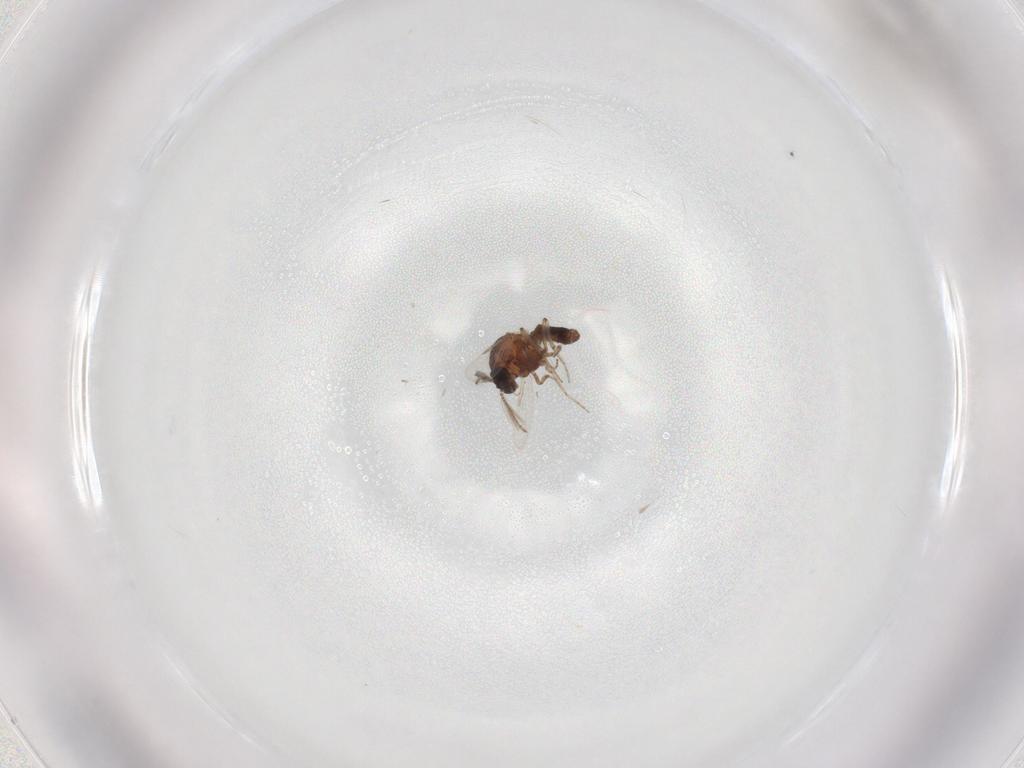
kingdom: Animalia
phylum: Arthropoda
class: Insecta
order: Diptera
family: Ceratopogonidae
